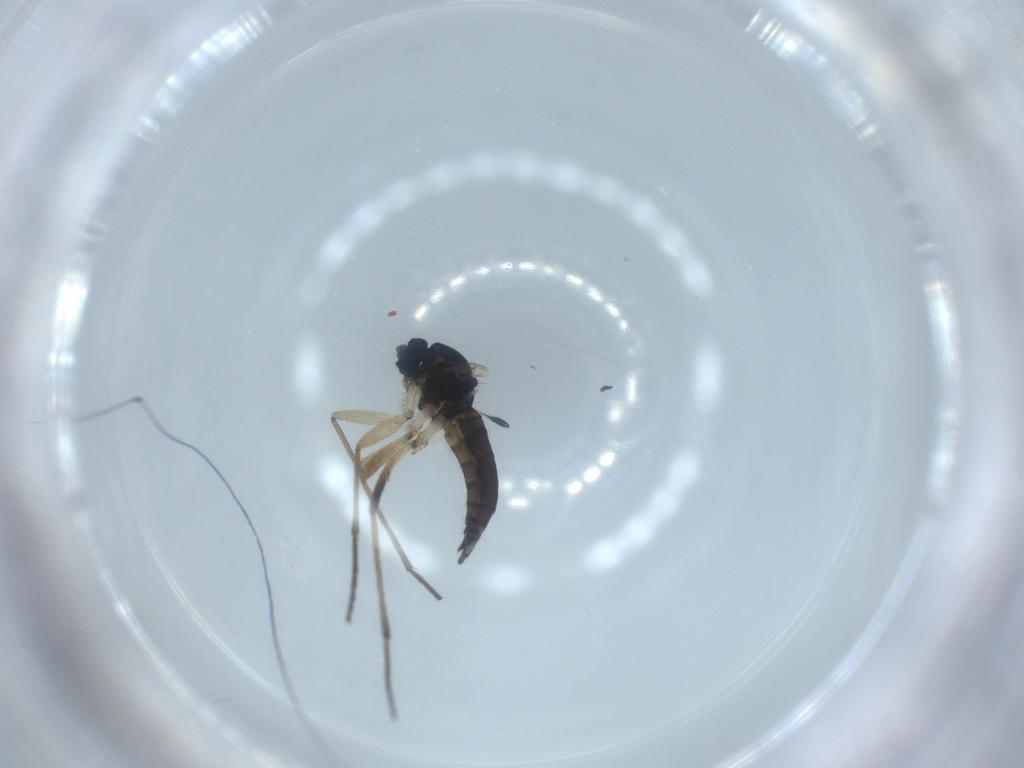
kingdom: Animalia
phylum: Arthropoda
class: Insecta
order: Diptera
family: Sciaridae
